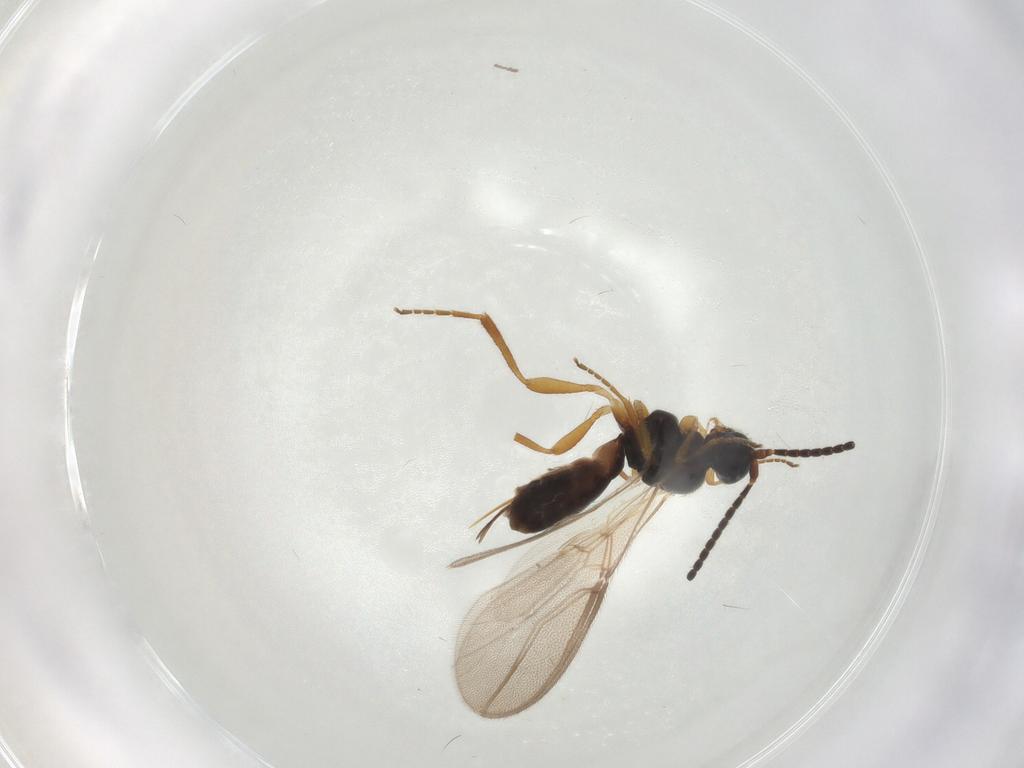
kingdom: Animalia
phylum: Arthropoda
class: Insecta
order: Hymenoptera
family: Braconidae
